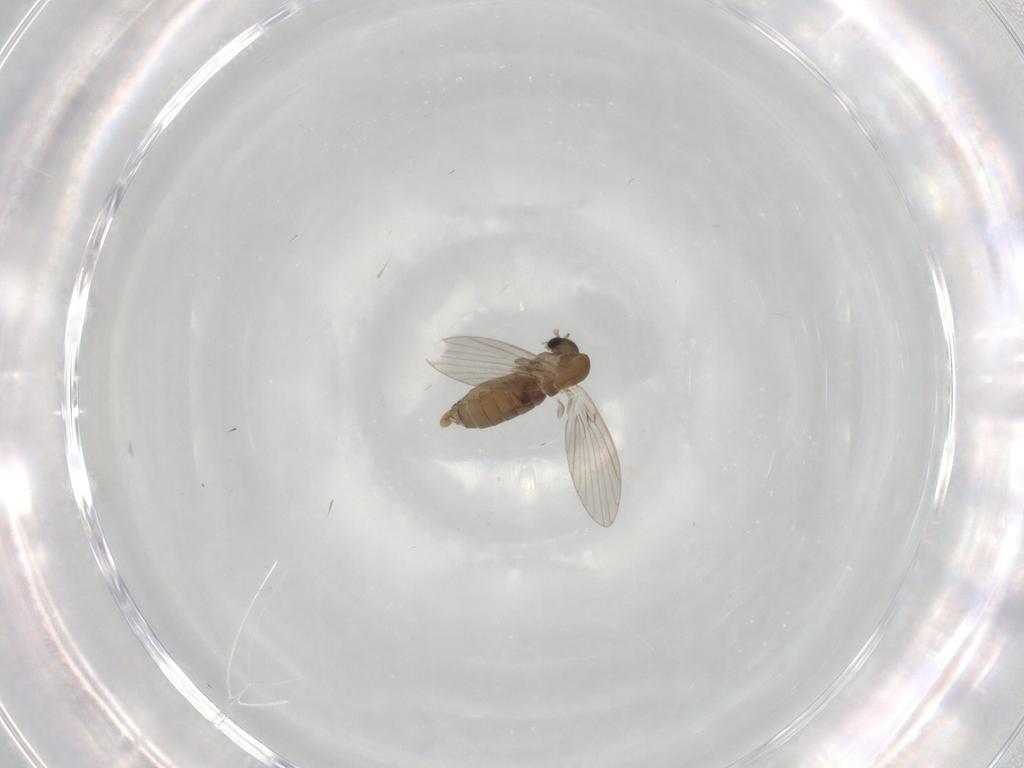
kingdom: Animalia
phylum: Arthropoda
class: Insecta
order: Diptera
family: Psychodidae
